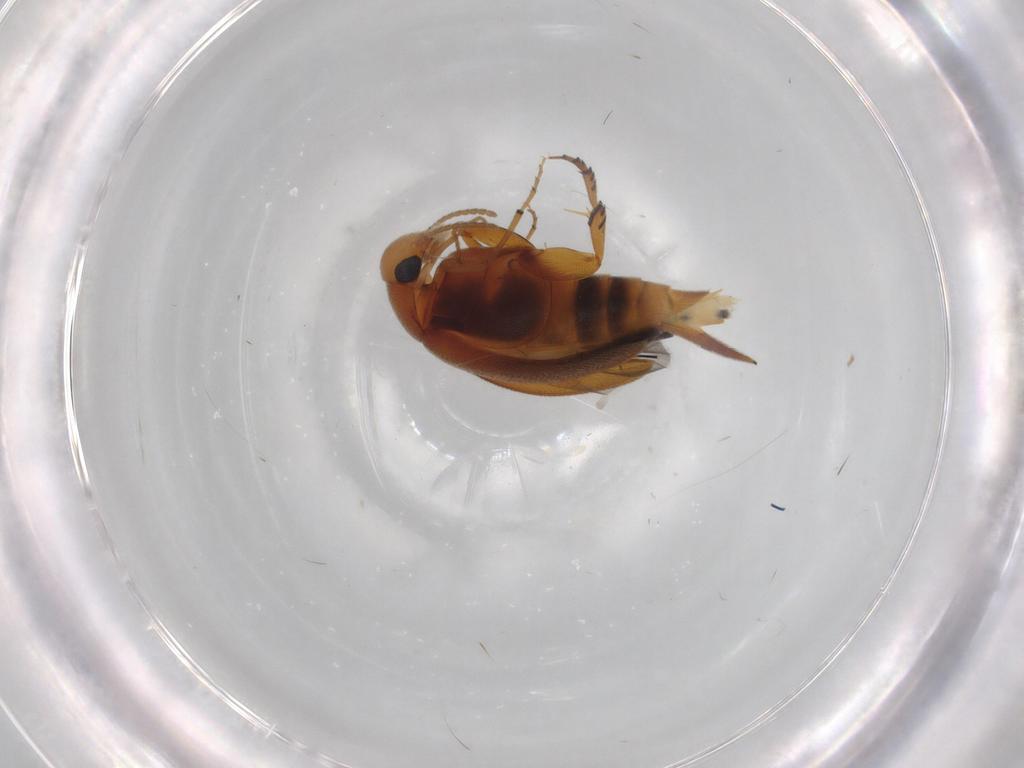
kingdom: Animalia
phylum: Arthropoda
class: Insecta
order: Coleoptera
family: Mordellidae
